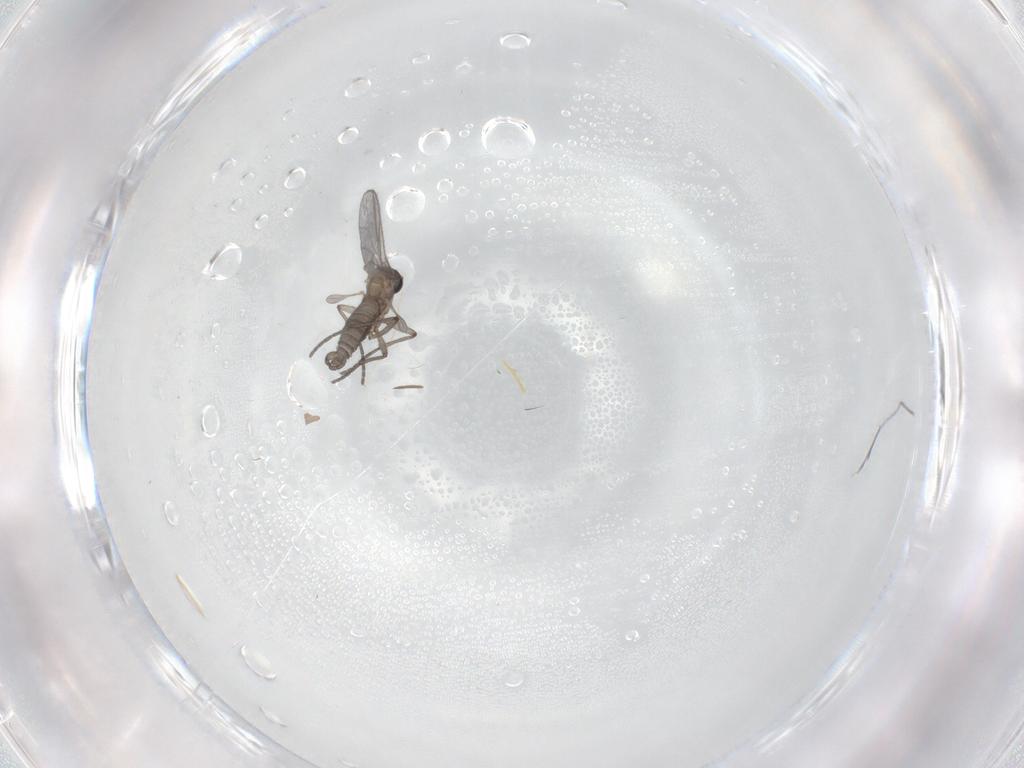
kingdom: Animalia
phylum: Arthropoda
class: Insecta
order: Diptera
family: Sciaridae
